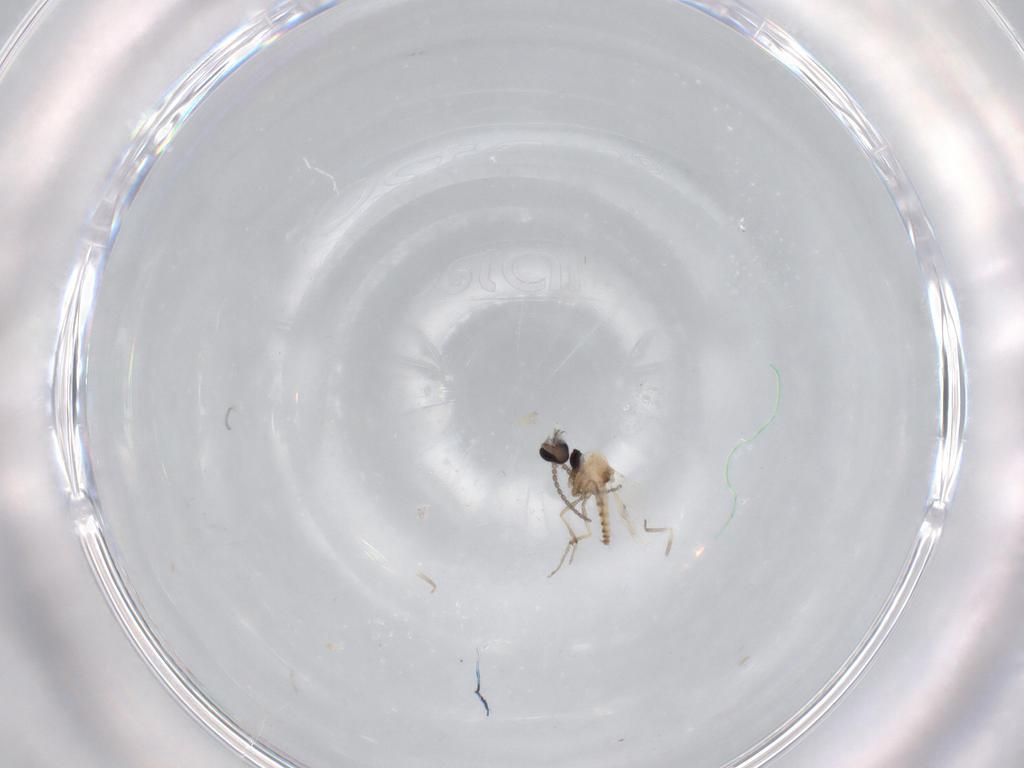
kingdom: Animalia
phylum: Arthropoda
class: Insecta
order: Diptera
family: Cecidomyiidae
